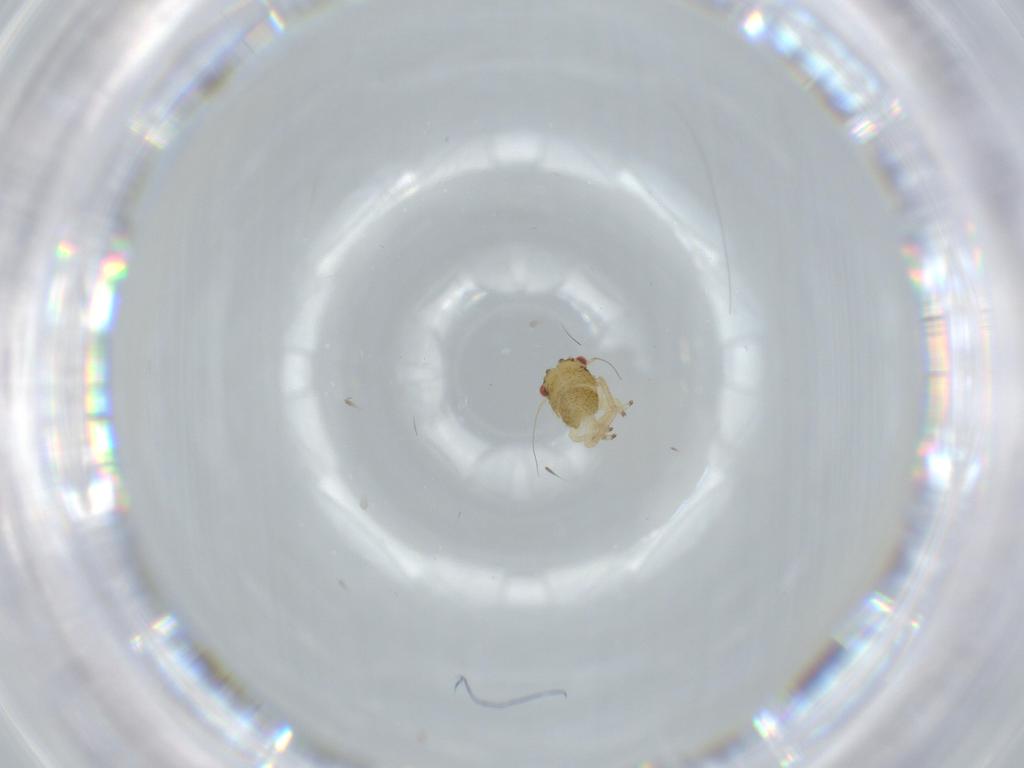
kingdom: Animalia
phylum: Arthropoda
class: Insecta
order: Hemiptera
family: Cicadellidae
